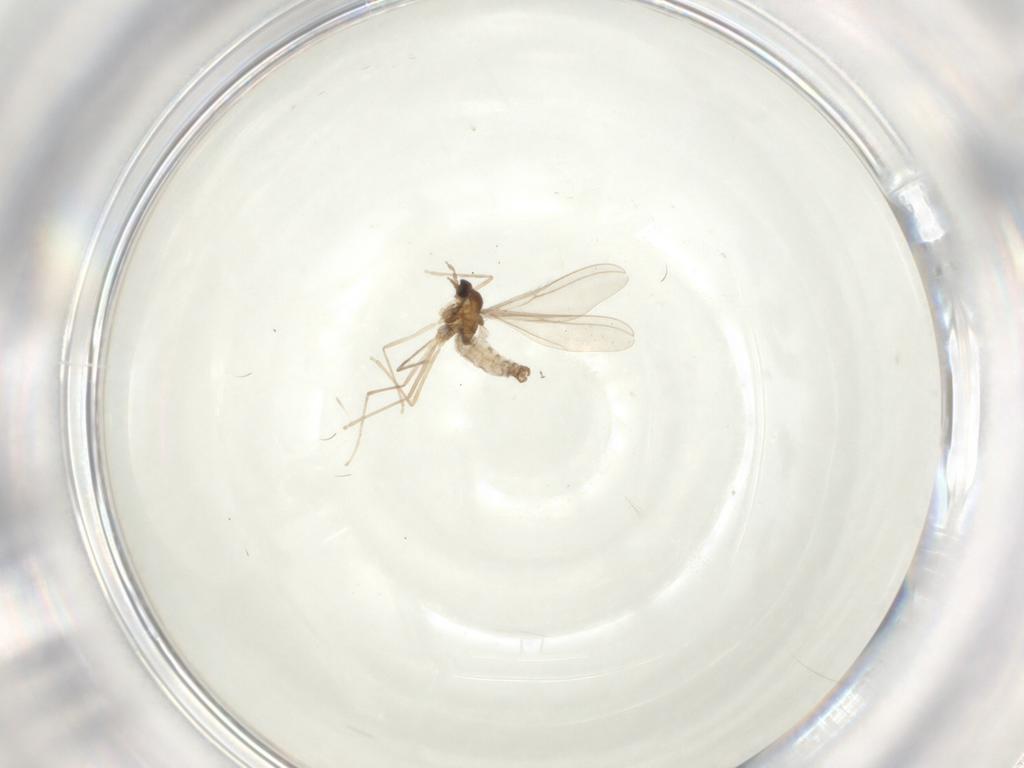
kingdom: Animalia
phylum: Arthropoda
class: Insecta
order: Diptera
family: Cecidomyiidae
